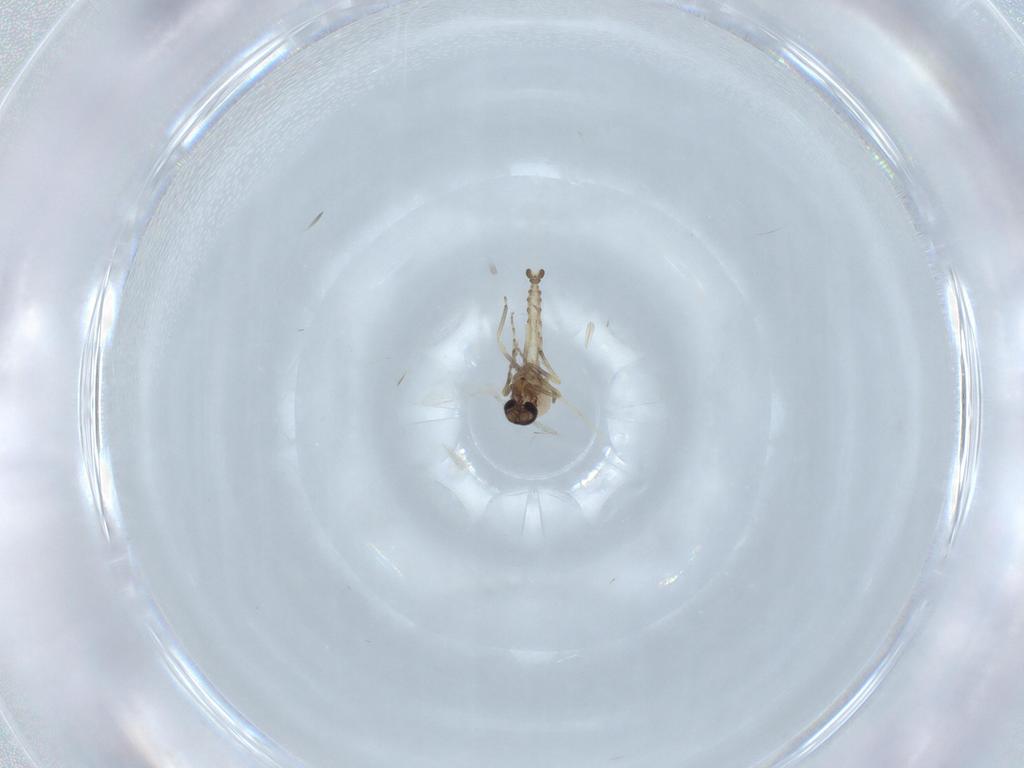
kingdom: Animalia
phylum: Arthropoda
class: Insecta
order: Diptera
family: Psychodidae
